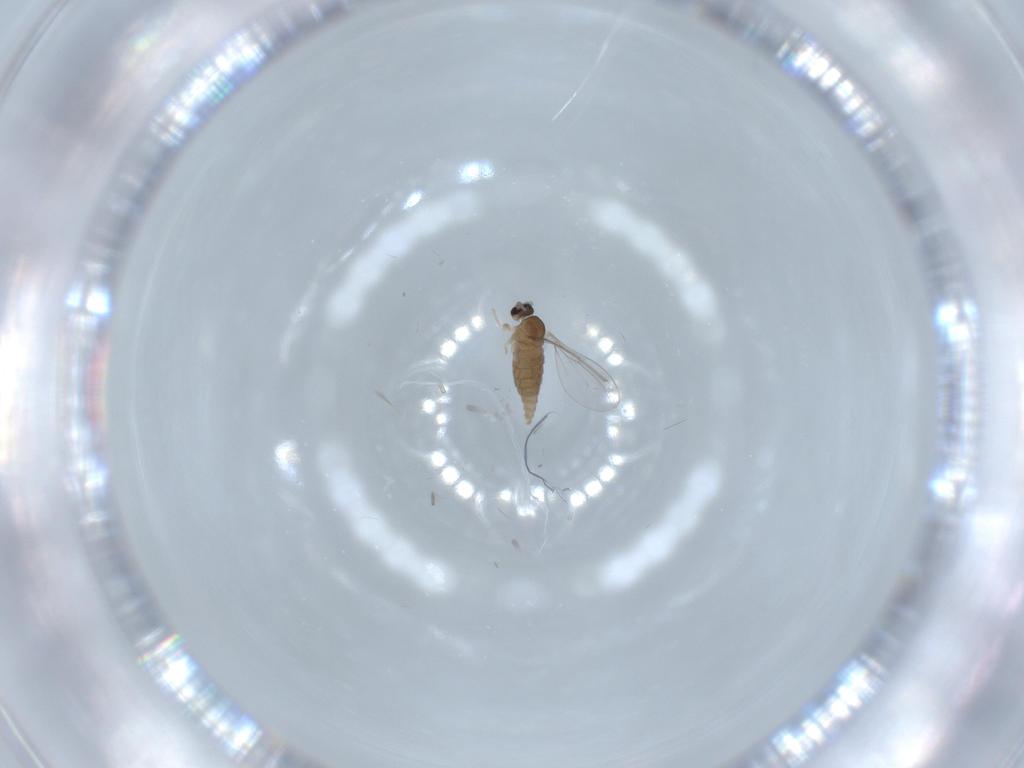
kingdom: Animalia
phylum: Arthropoda
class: Insecta
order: Diptera
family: Cecidomyiidae
